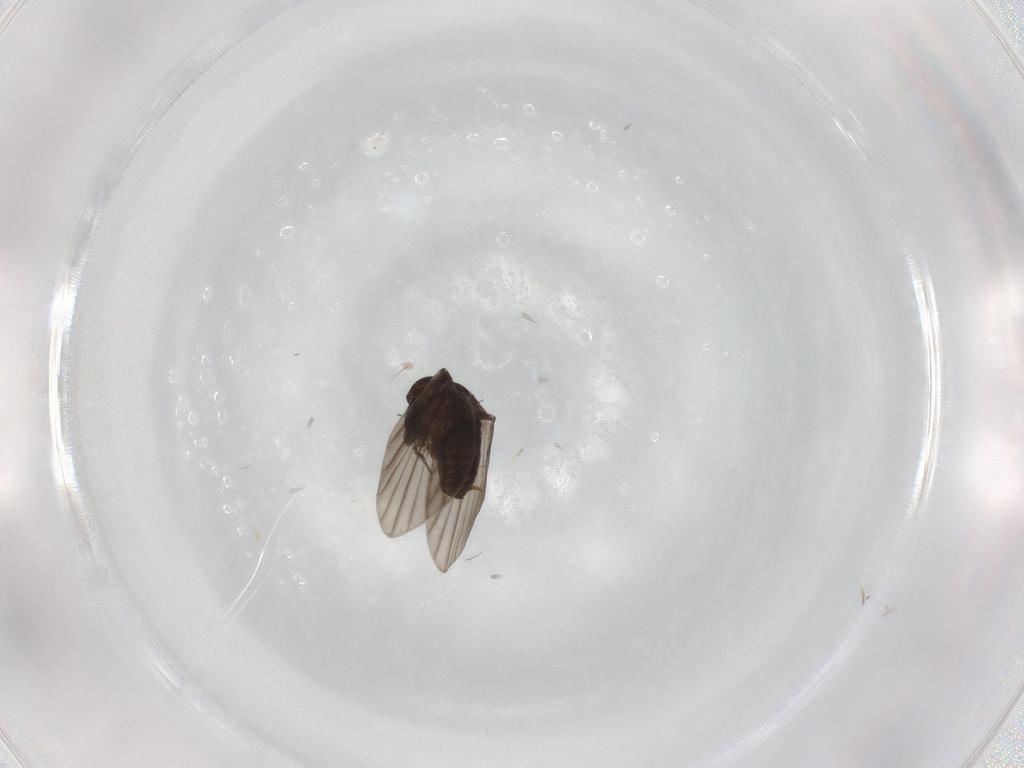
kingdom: Animalia
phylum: Arthropoda
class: Insecta
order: Diptera
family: Psychodidae
